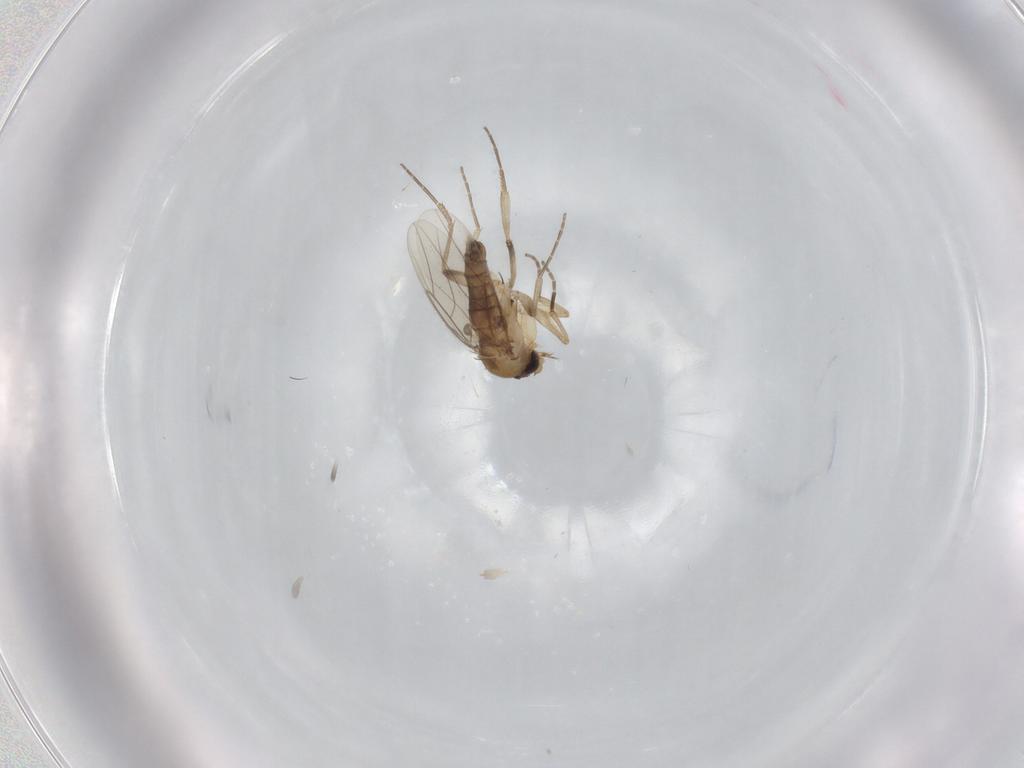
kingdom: Animalia
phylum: Arthropoda
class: Insecta
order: Diptera
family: Phoridae
